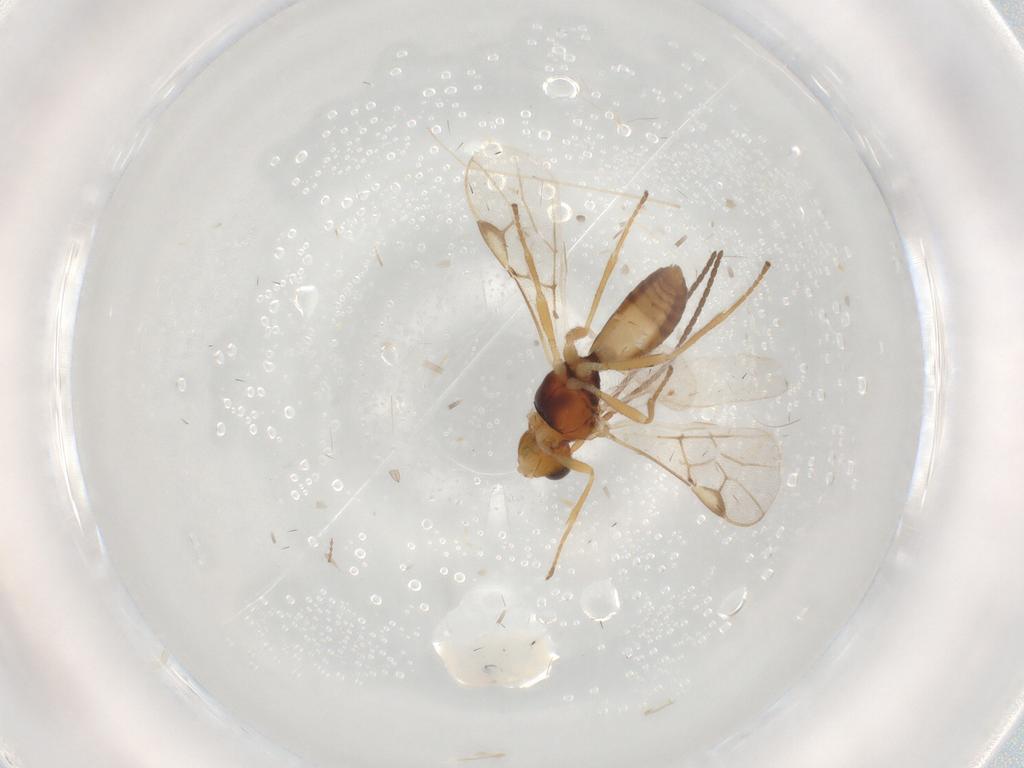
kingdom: Animalia
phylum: Arthropoda
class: Insecta
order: Hymenoptera
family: Braconidae
